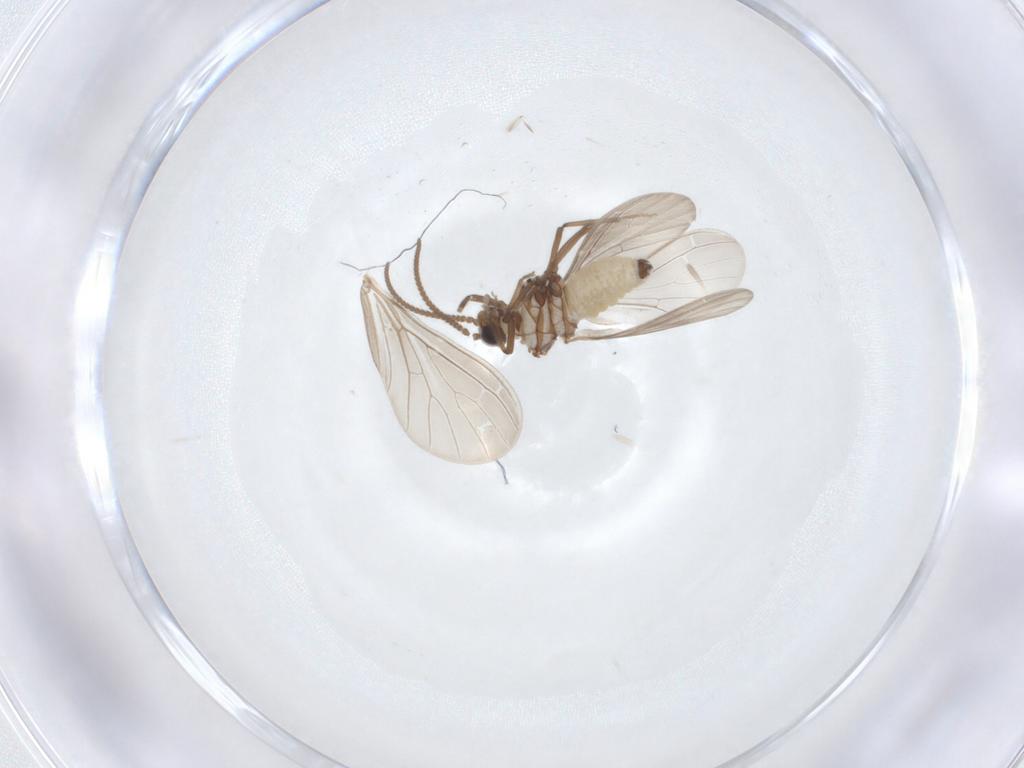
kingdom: Animalia
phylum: Arthropoda
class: Insecta
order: Neuroptera
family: Coniopterygidae
